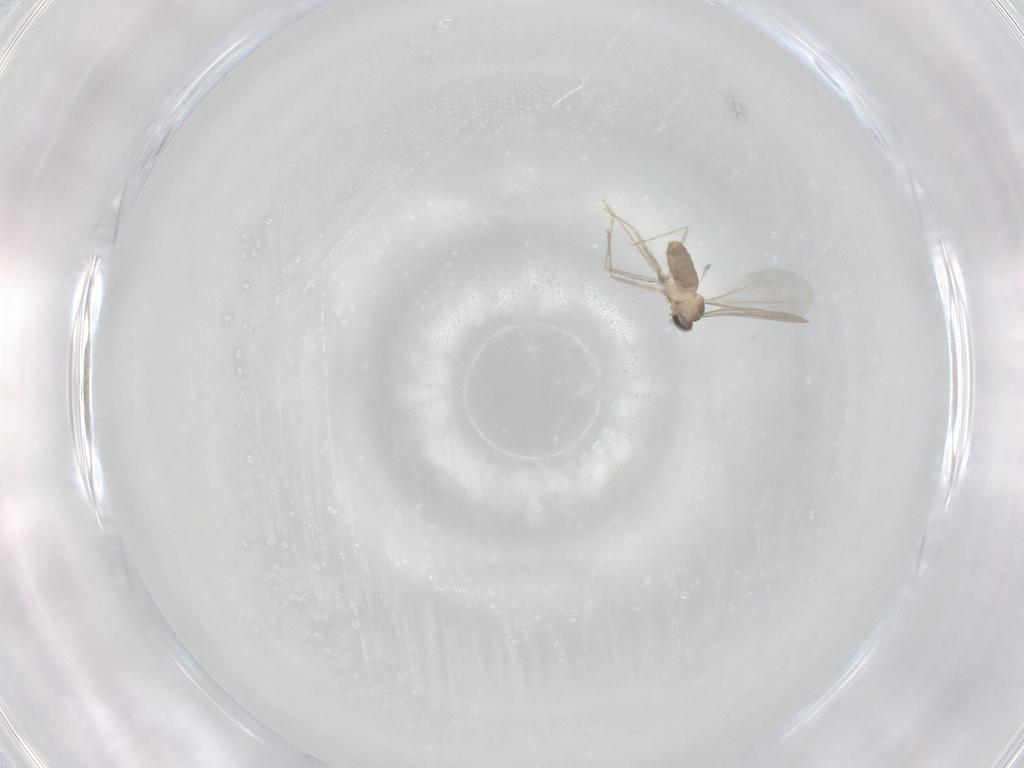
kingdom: Animalia
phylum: Arthropoda
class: Insecta
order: Diptera
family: Cecidomyiidae
